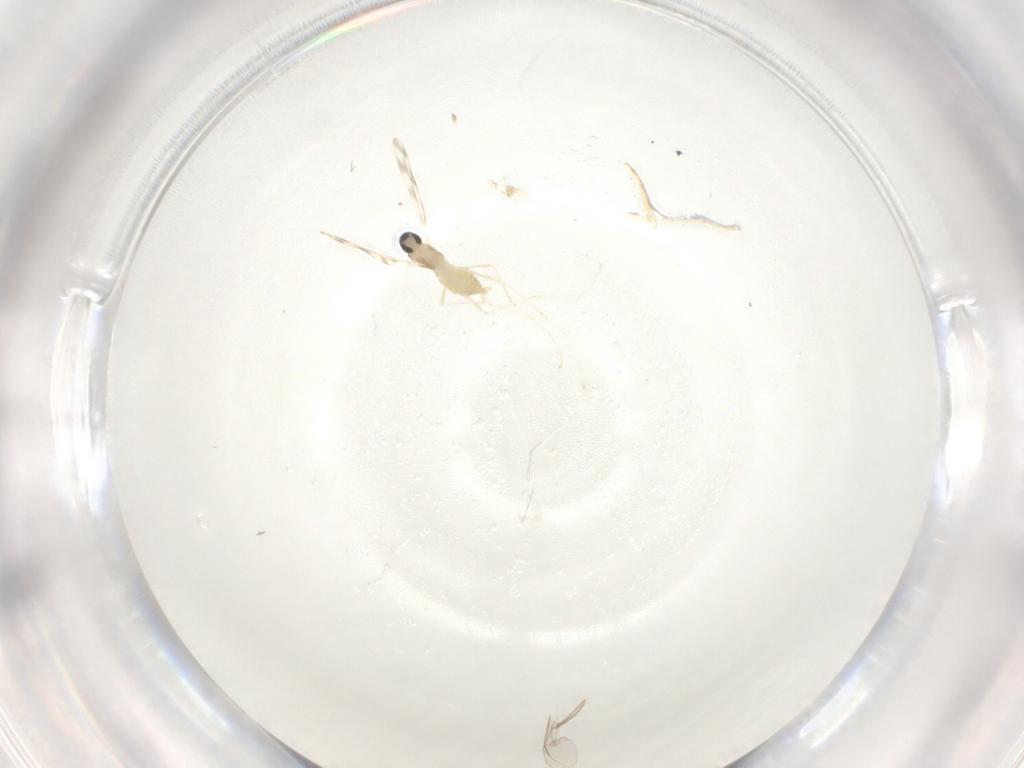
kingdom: Animalia
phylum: Arthropoda
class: Insecta
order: Diptera
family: Cecidomyiidae
